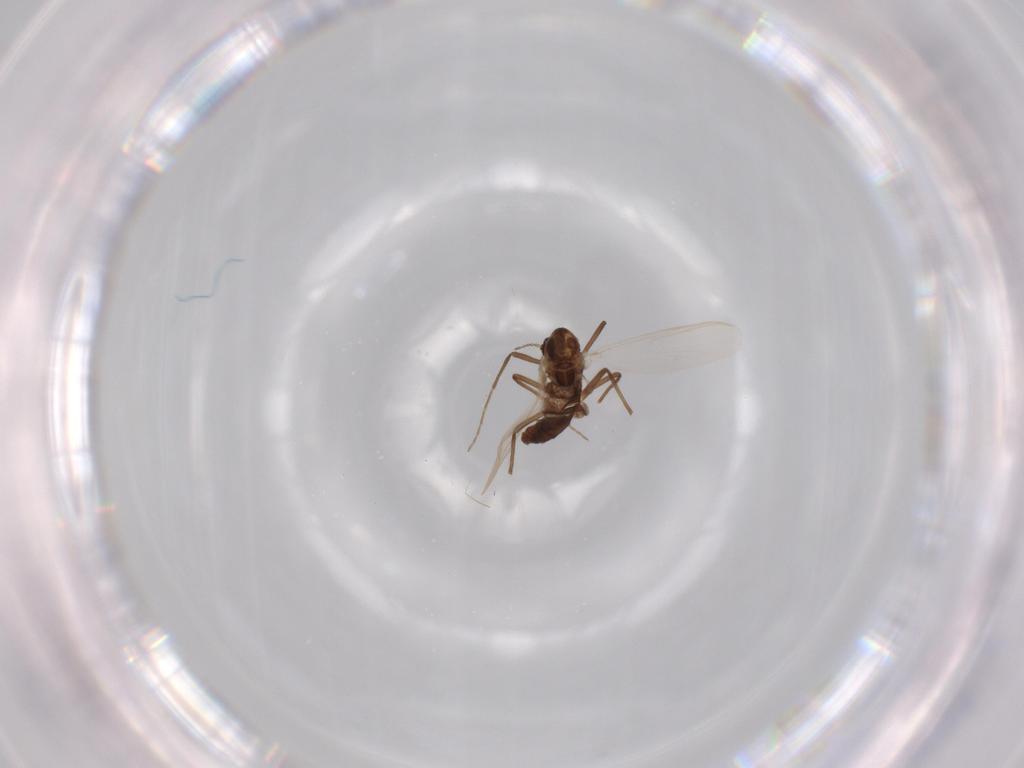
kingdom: Animalia
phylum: Arthropoda
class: Insecta
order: Diptera
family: Chironomidae
